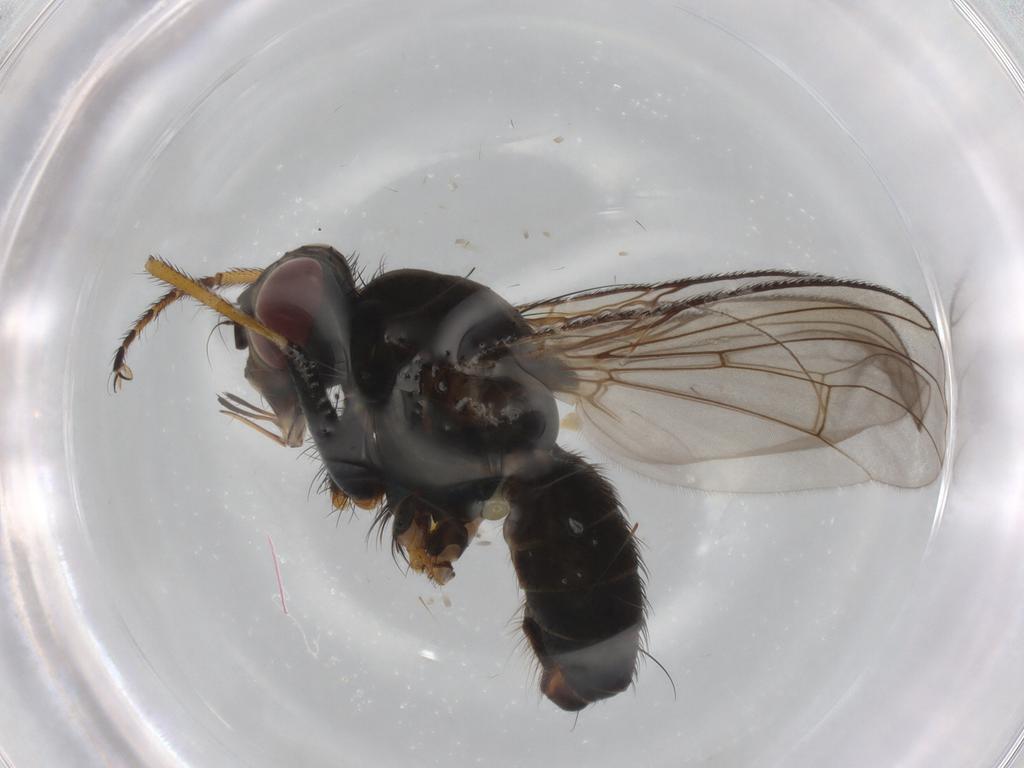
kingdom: Animalia
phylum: Arthropoda
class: Insecta
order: Diptera
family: Muscidae
